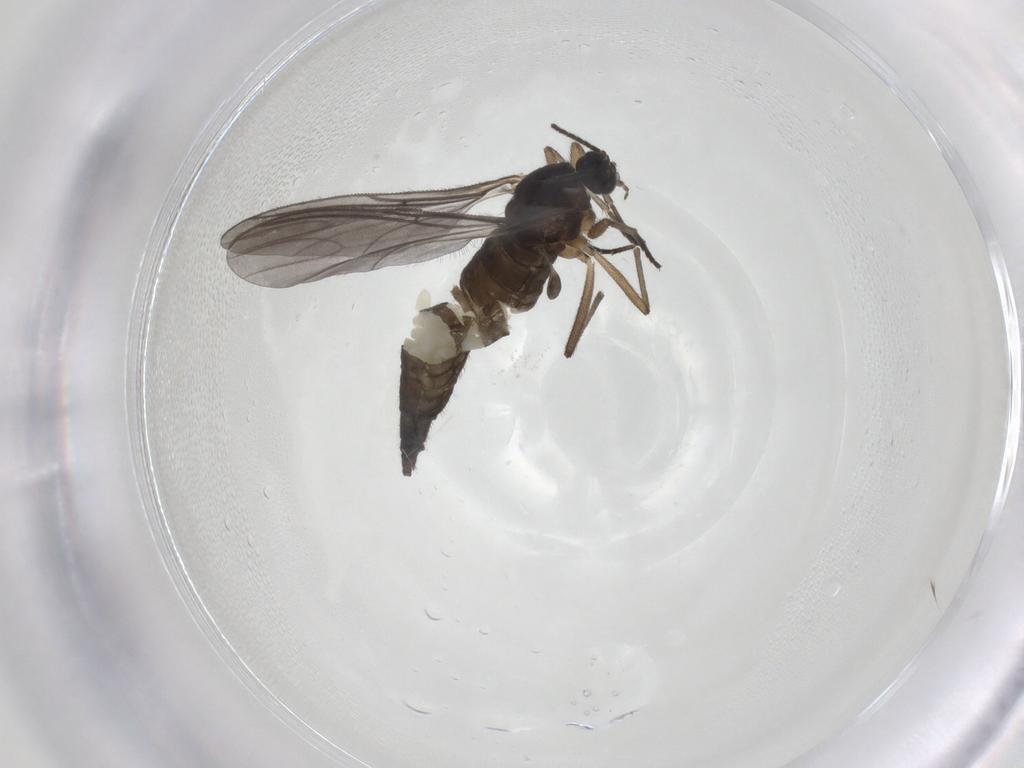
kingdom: Animalia
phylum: Arthropoda
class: Insecta
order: Diptera
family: Sciaridae
